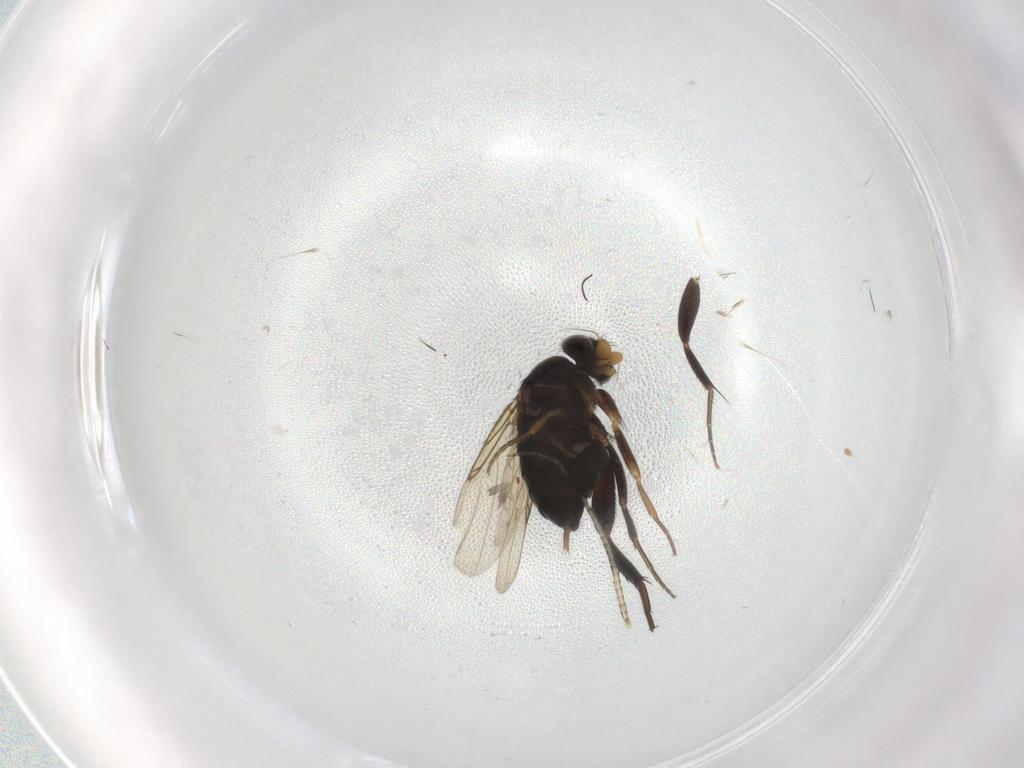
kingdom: Animalia
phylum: Arthropoda
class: Insecta
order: Diptera
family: Phoridae
